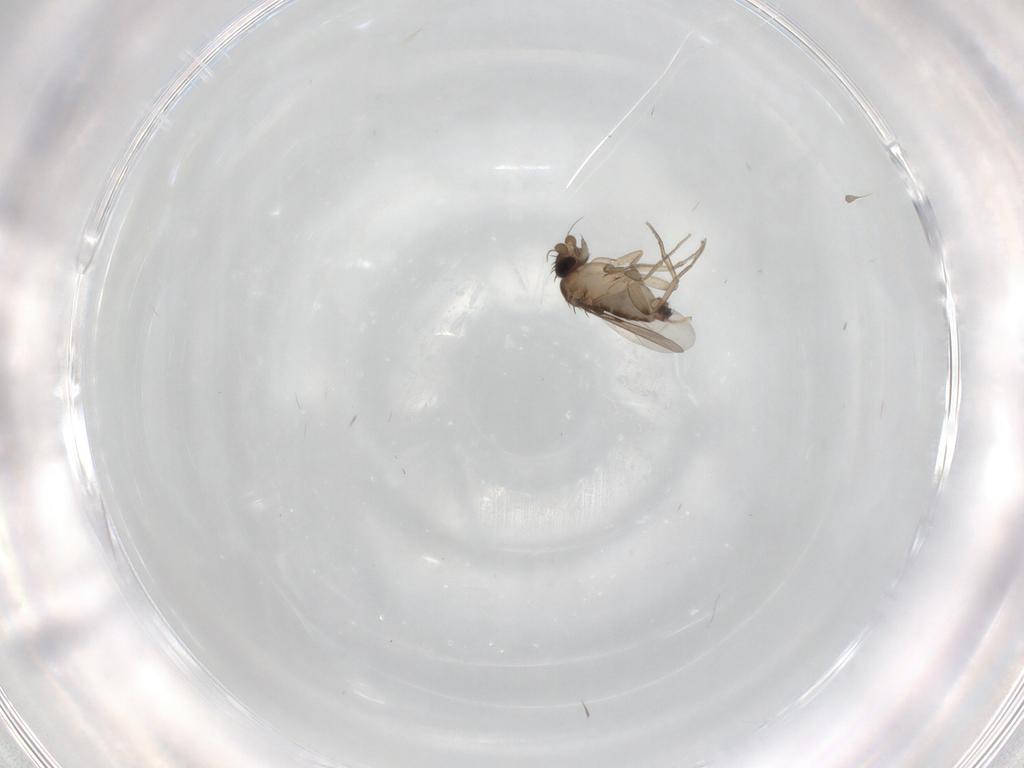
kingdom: Animalia
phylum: Arthropoda
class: Insecta
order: Diptera
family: Phoridae
